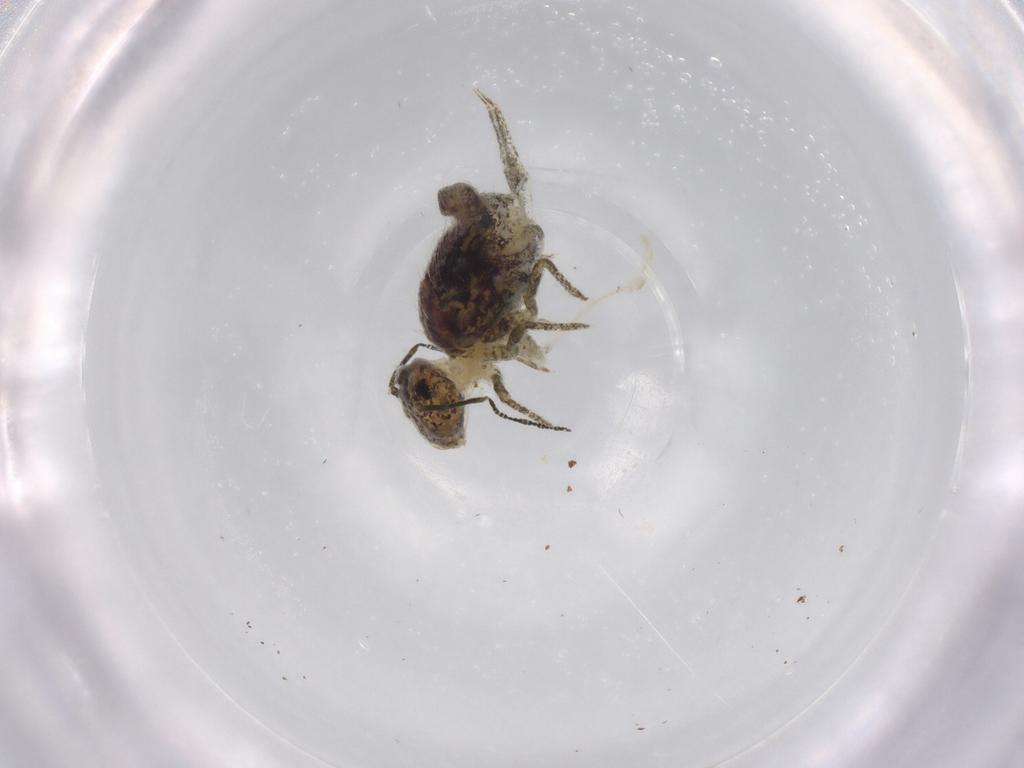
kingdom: Animalia
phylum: Arthropoda
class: Collembola
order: Symphypleona
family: Sminthuridae
